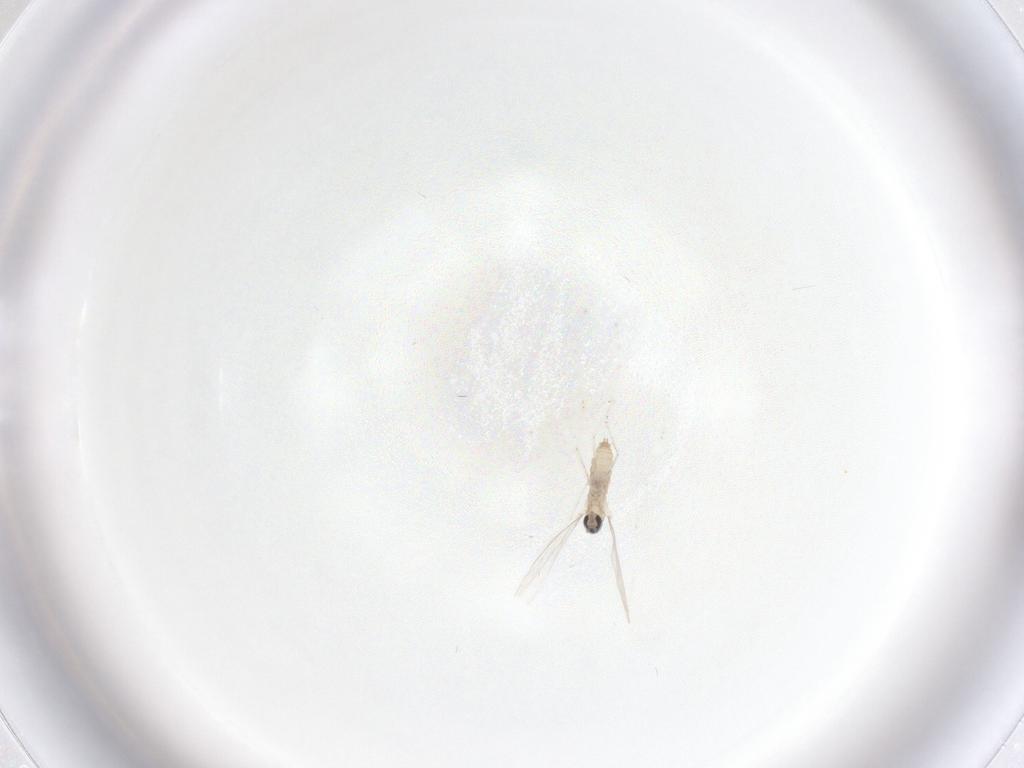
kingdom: Animalia
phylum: Arthropoda
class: Insecta
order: Diptera
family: Cecidomyiidae
